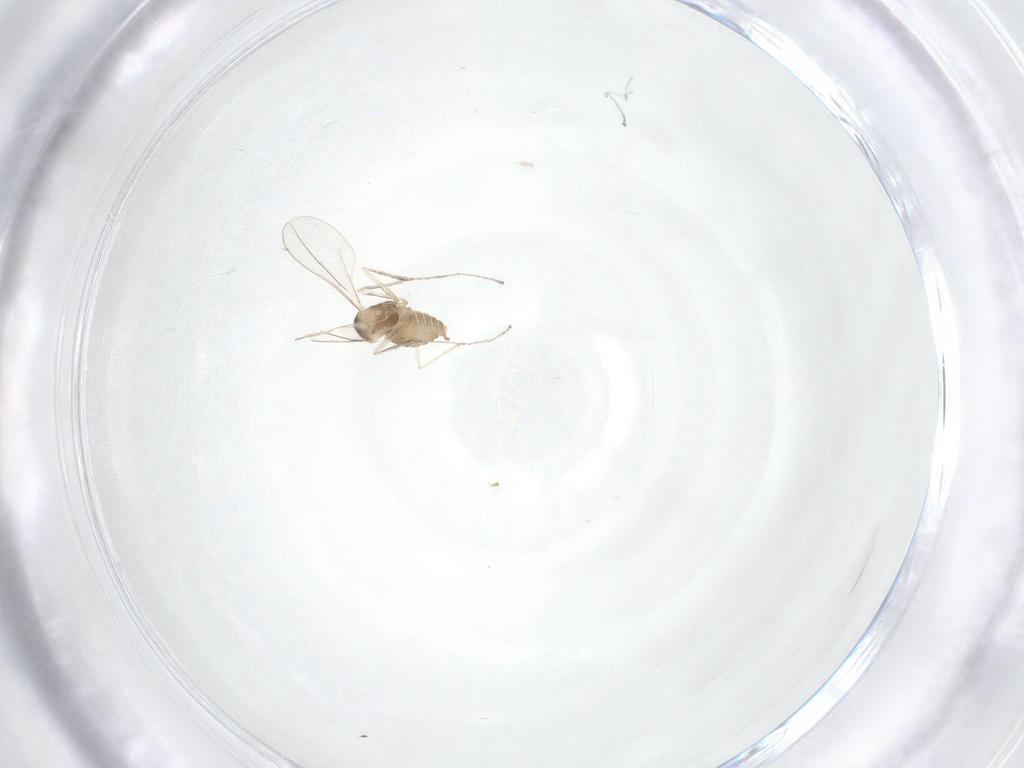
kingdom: Animalia
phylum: Arthropoda
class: Insecta
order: Diptera
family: Cecidomyiidae
